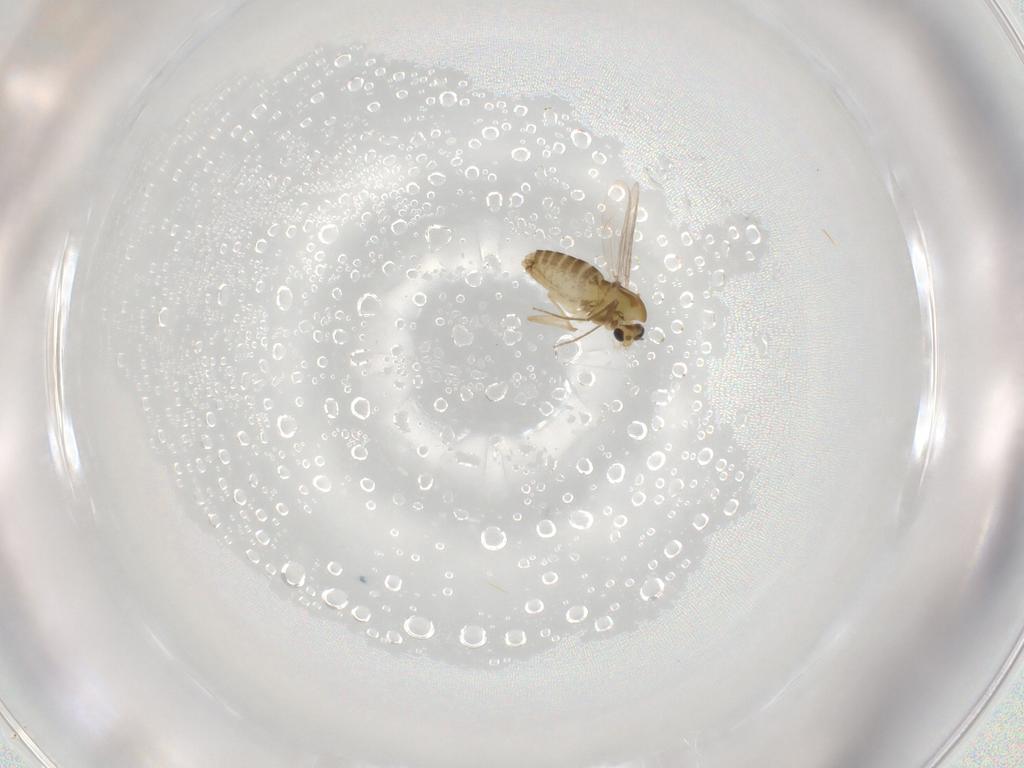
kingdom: Animalia
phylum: Arthropoda
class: Insecta
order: Diptera
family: Chironomidae
